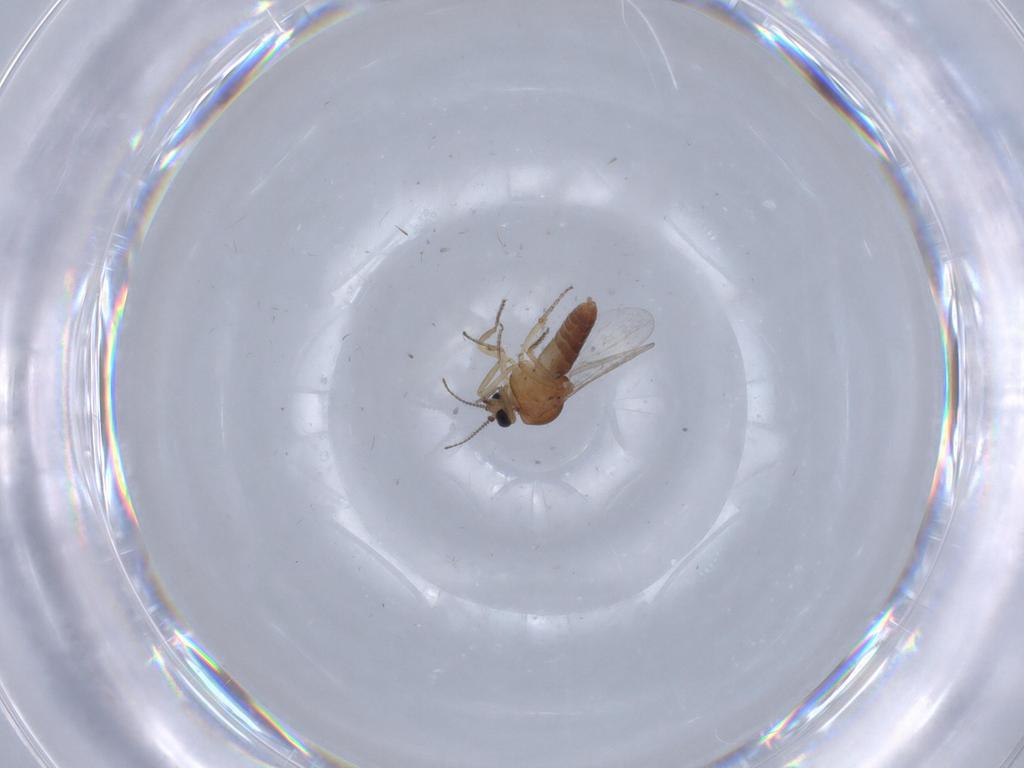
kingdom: Animalia
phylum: Arthropoda
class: Insecta
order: Diptera
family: Ceratopogonidae
